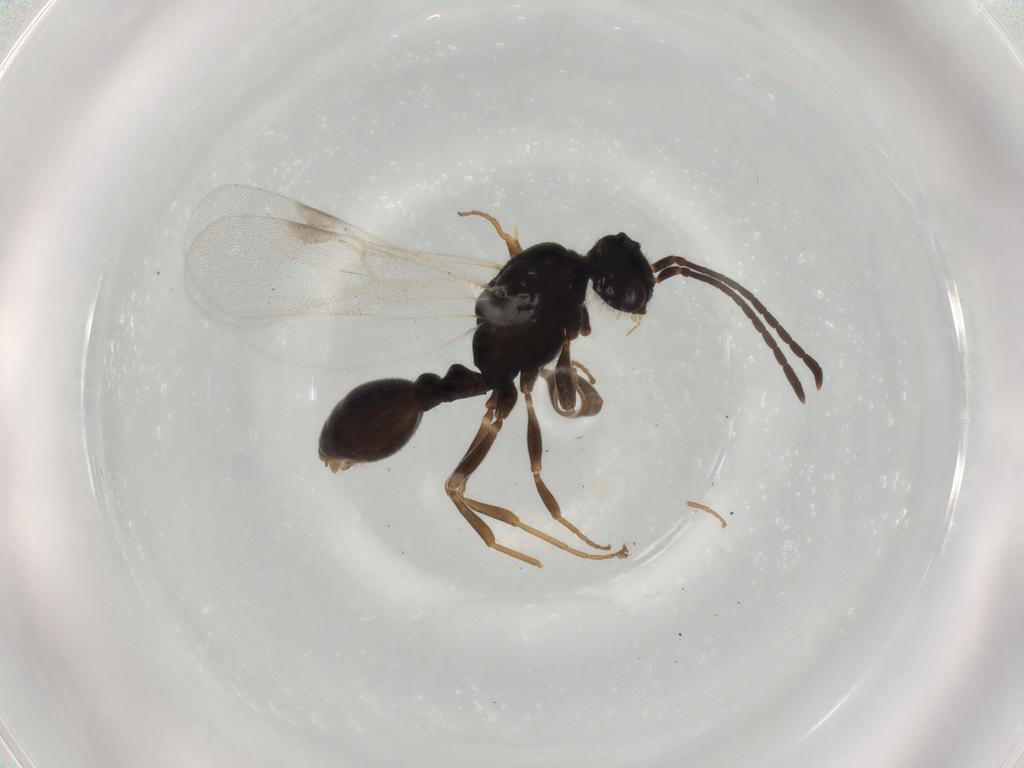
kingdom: Animalia
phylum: Arthropoda
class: Insecta
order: Hymenoptera
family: Formicidae
